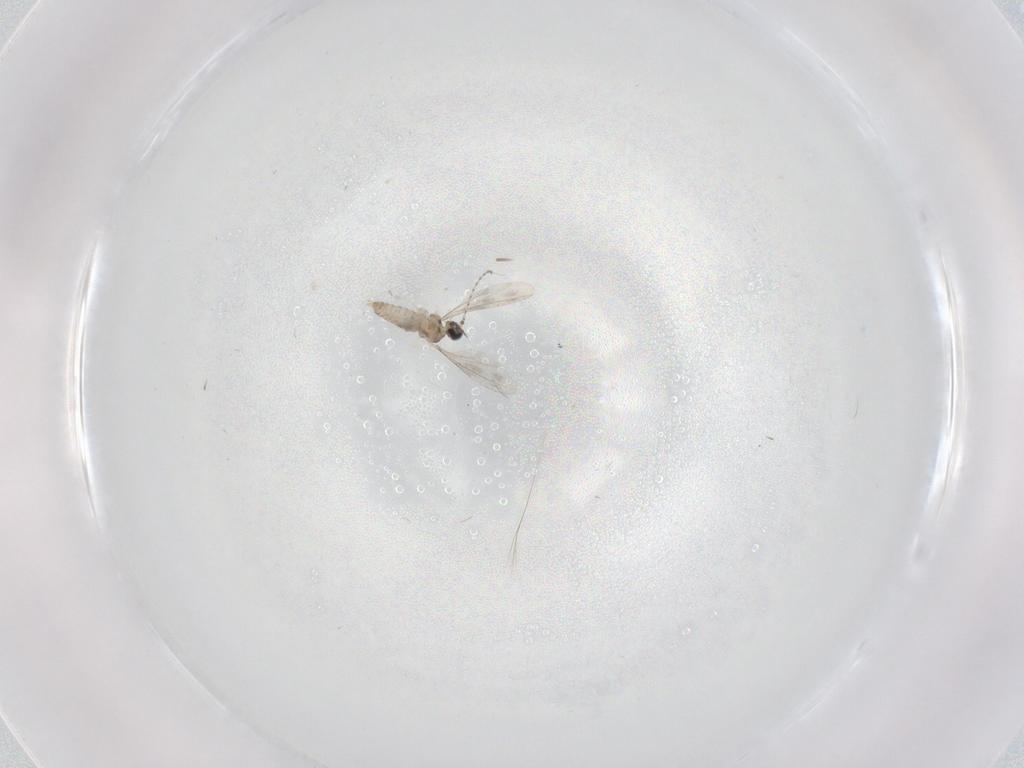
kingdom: Animalia
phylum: Arthropoda
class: Insecta
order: Diptera
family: Cecidomyiidae
